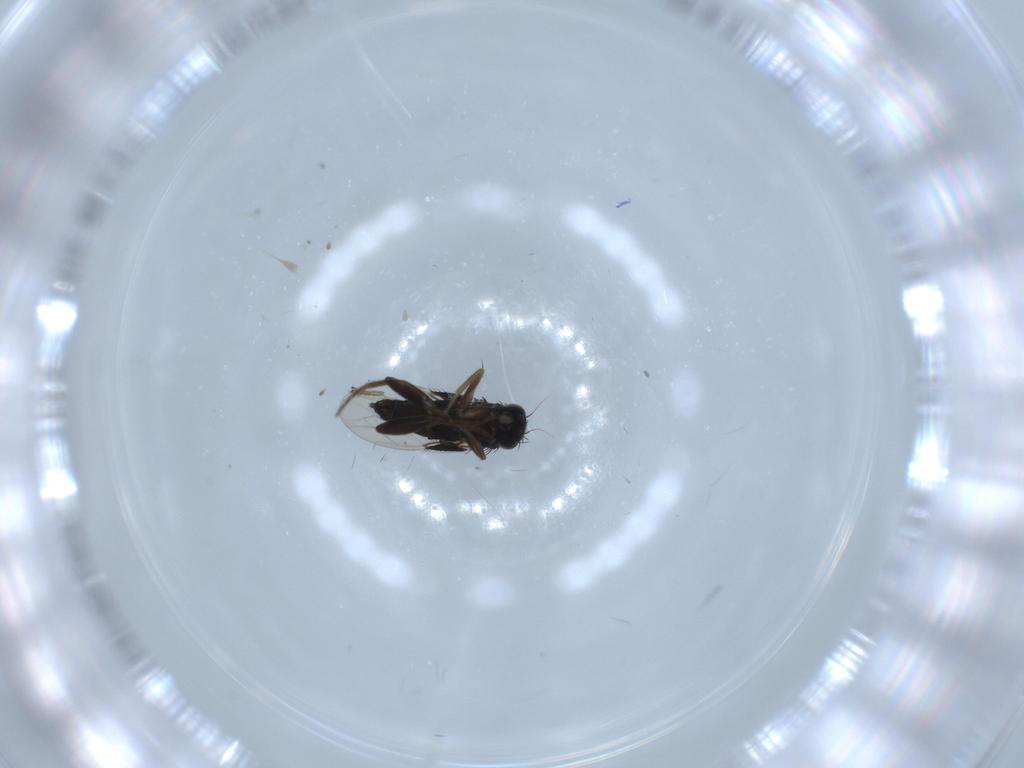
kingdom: Animalia
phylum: Arthropoda
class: Insecta
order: Diptera
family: Phoridae
